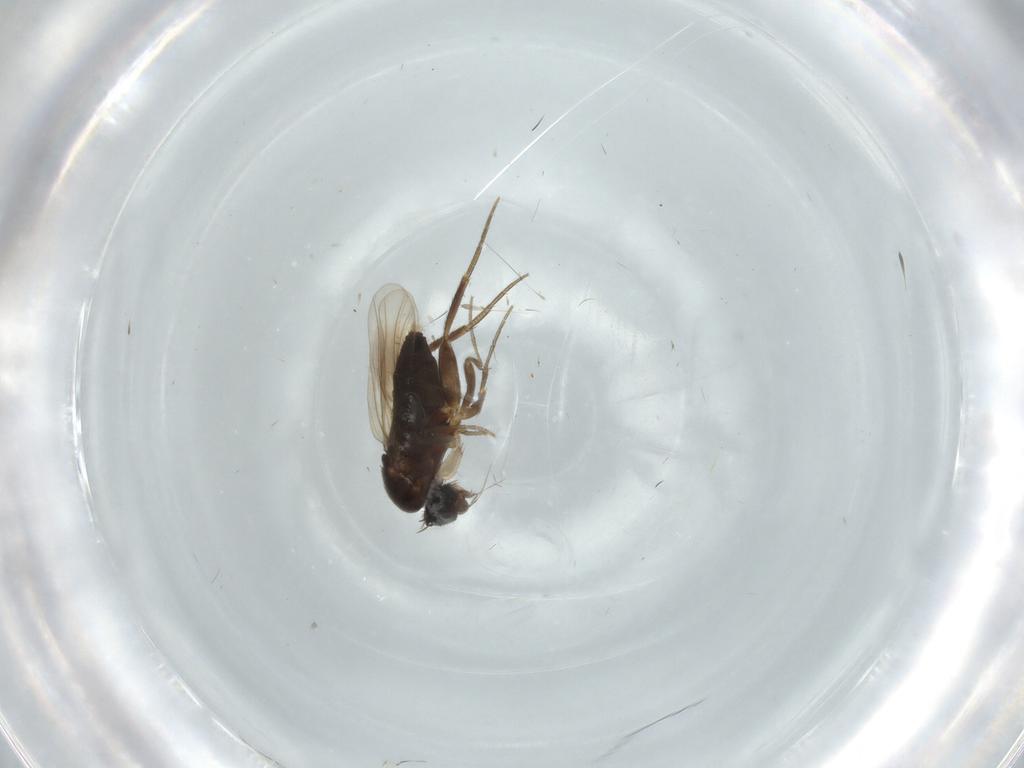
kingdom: Animalia
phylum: Arthropoda
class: Insecta
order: Diptera
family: Phoridae
